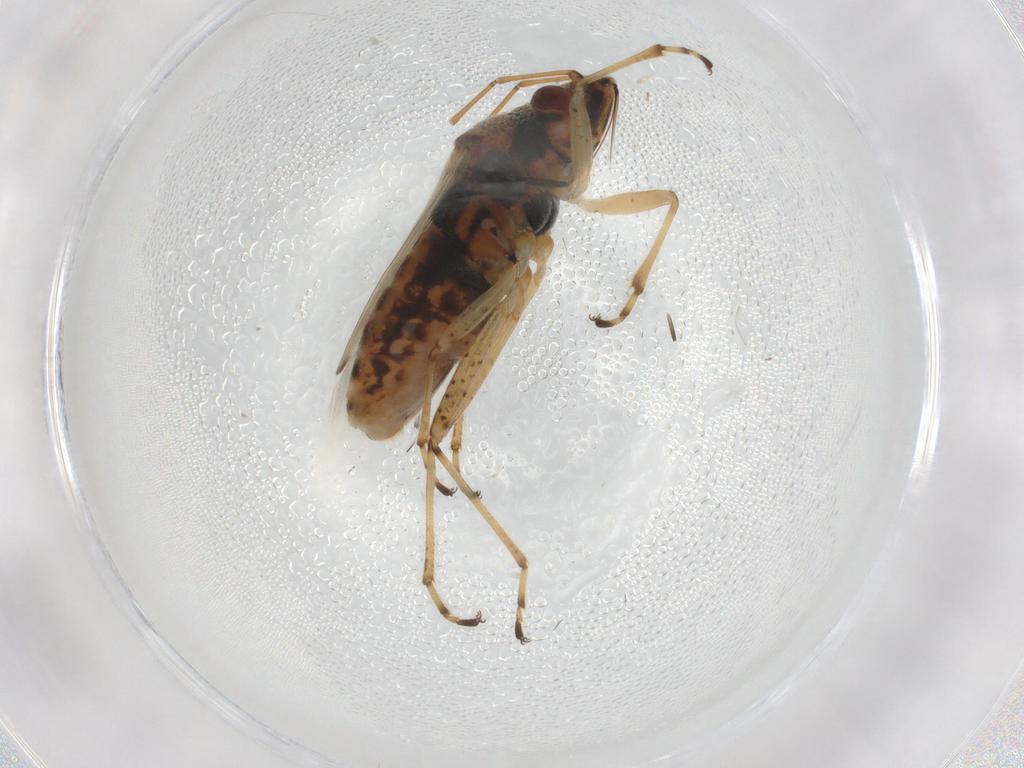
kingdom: Animalia
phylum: Arthropoda
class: Insecta
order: Hemiptera
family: Lygaeidae
